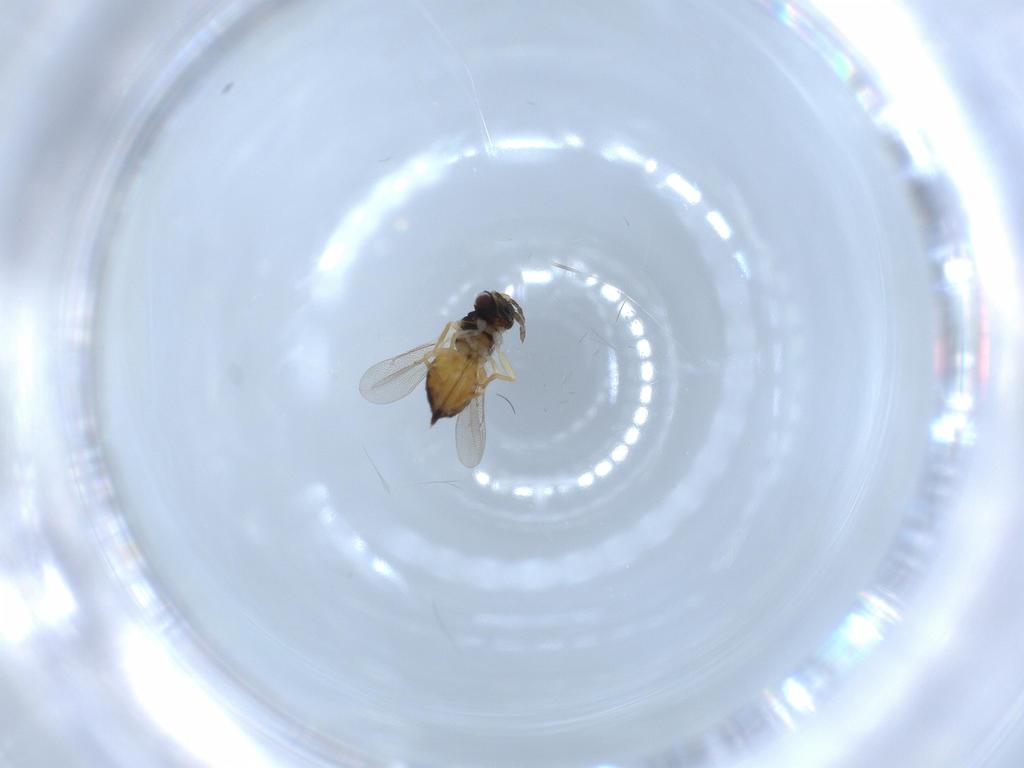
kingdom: Animalia
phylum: Arthropoda
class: Insecta
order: Hymenoptera
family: Eulophidae
